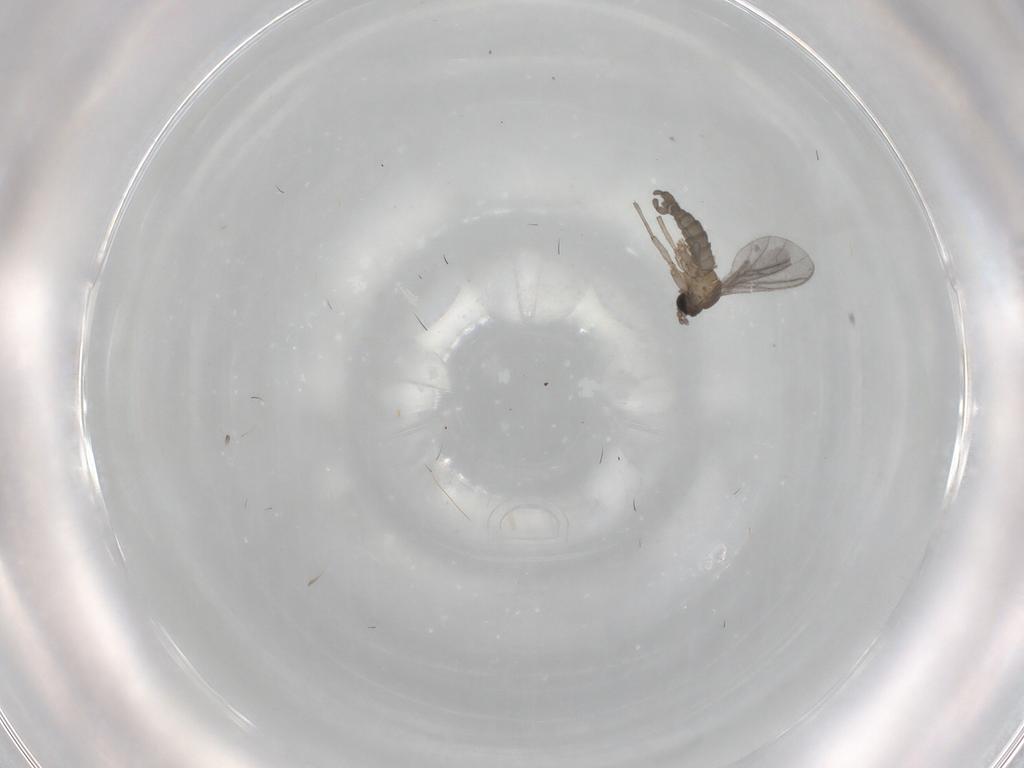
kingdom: Animalia
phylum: Arthropoda
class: Insecta
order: Diptera
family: Sciaridae
